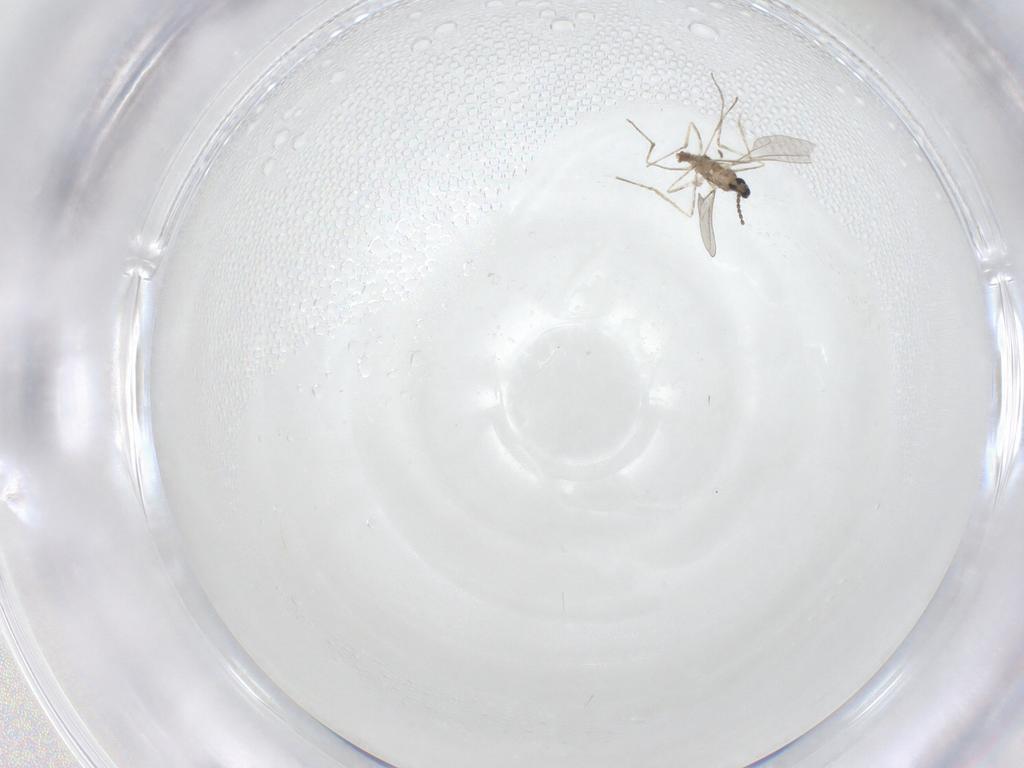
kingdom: Animalia
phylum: Arthropoda
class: Insecta
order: Diptera
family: Cecidomyiidae
